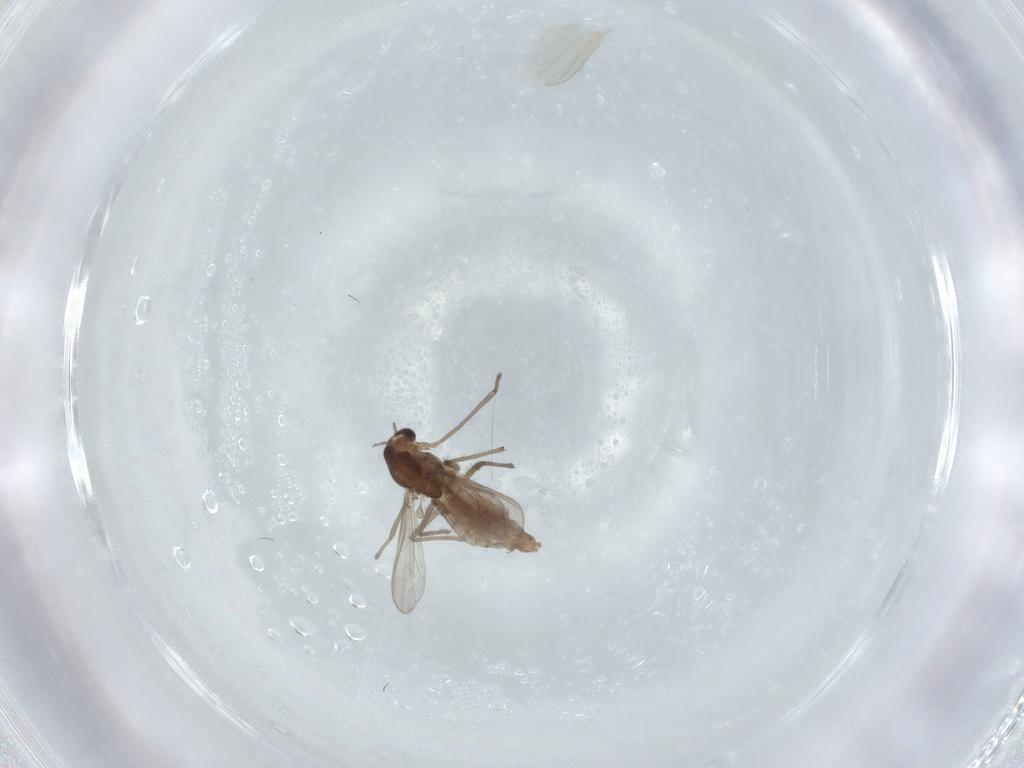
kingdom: Animalia
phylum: Arthropoda
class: Insecta
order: Diptera
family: Chironomidae
